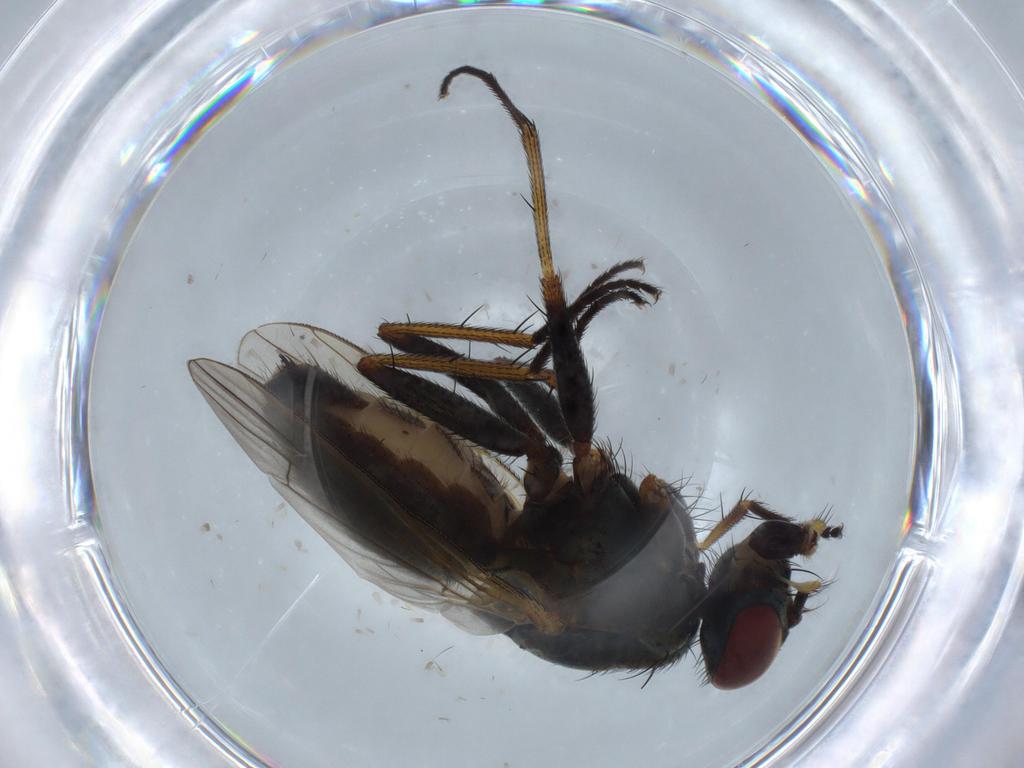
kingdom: Animalia
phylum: Arthropoda
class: Insecta
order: Diptera
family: Muscidae
